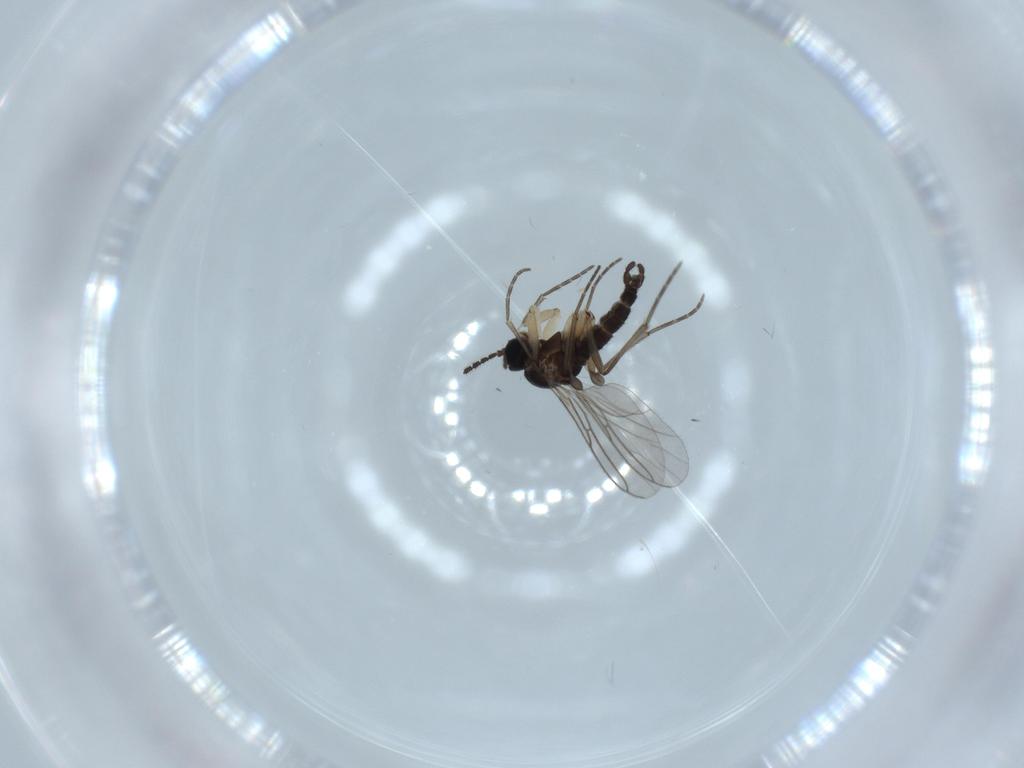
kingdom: Animalia
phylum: Arthropoda
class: Insecta
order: Diptera
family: Sciaridae
